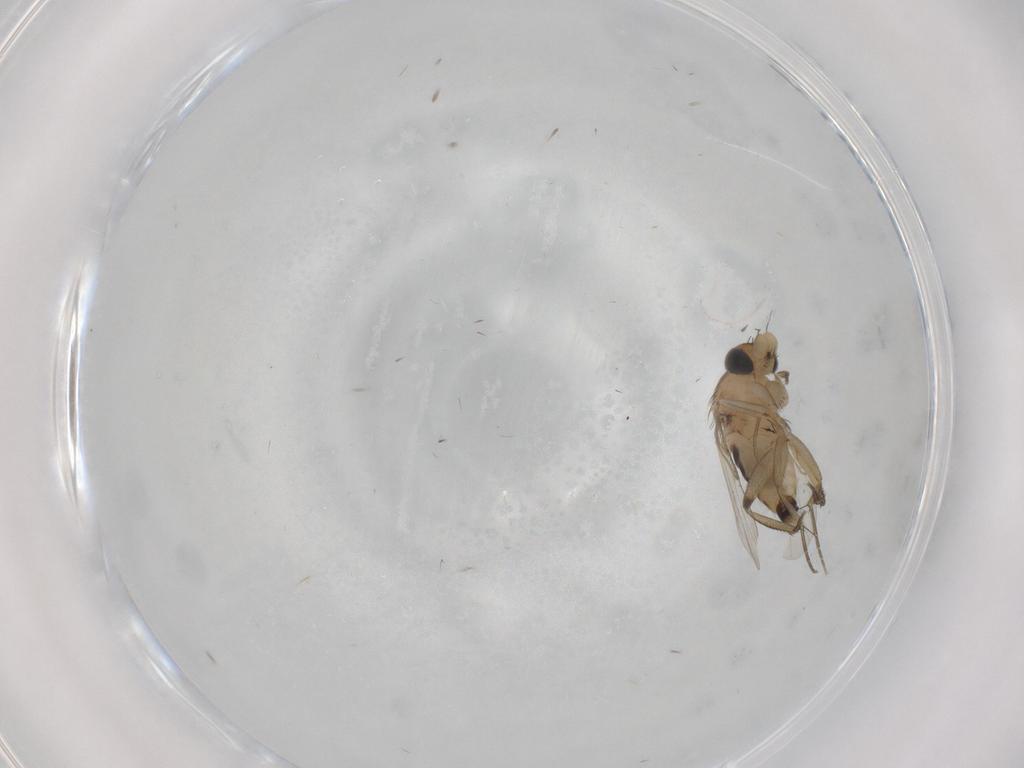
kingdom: Animalia
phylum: Arthropoda
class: Insecta
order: Diptera
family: Phoridae
